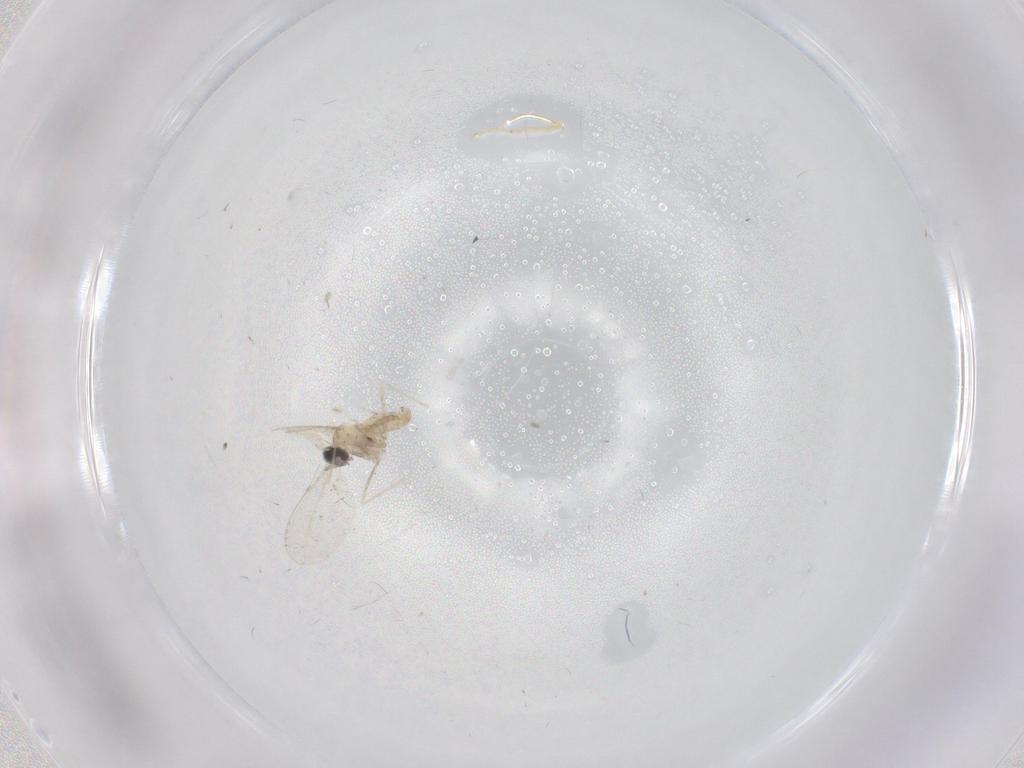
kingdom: Animalia
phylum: Arthropoda
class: Insecta
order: Diptera
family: Cecidomyiidae
